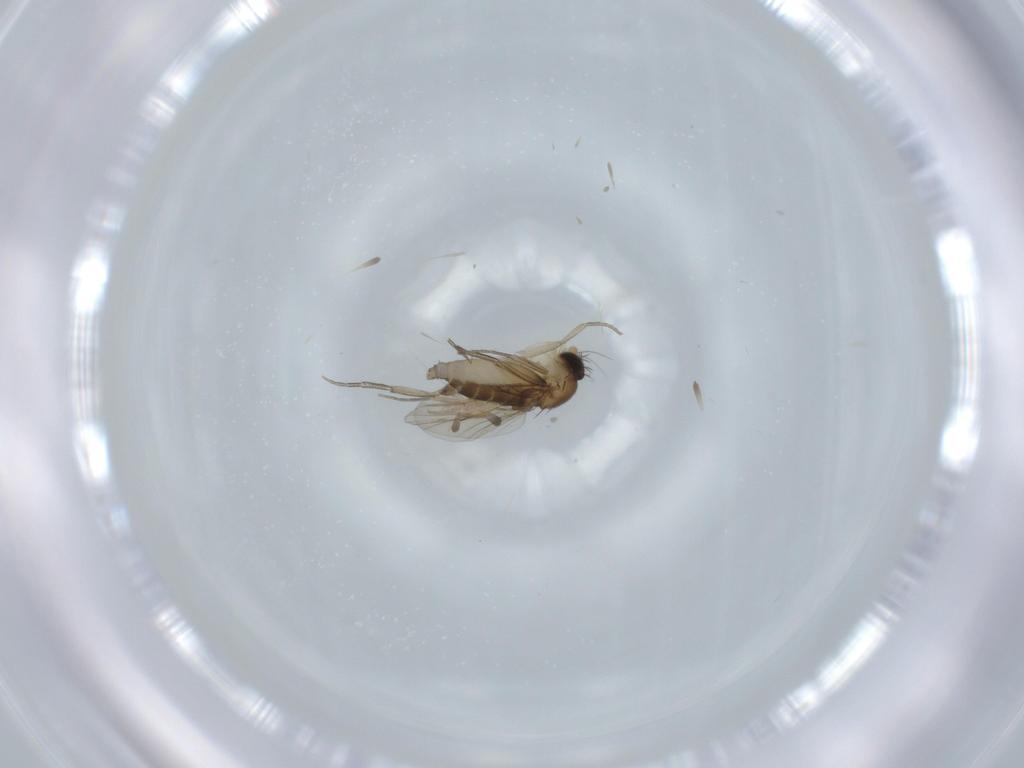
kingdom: Animalia
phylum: Arthropoda
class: Insecta
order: Diptera
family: Phoridae
